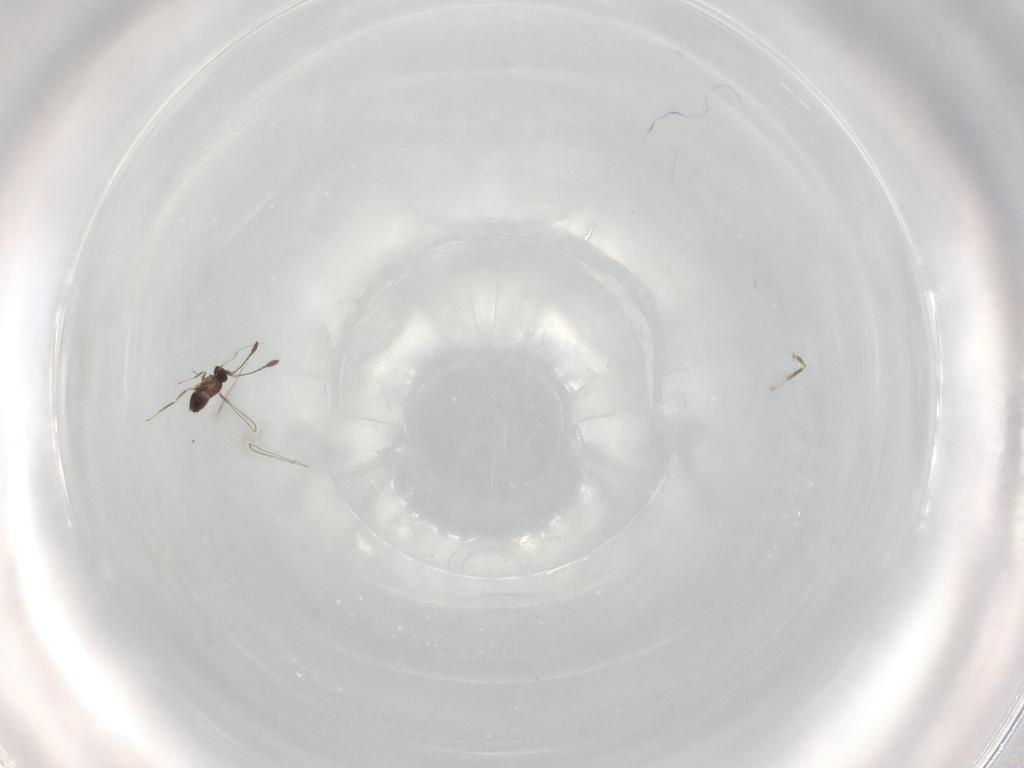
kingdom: Animalia
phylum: Arthropoda
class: Insecta
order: Hymenoptera
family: Mymaridae
